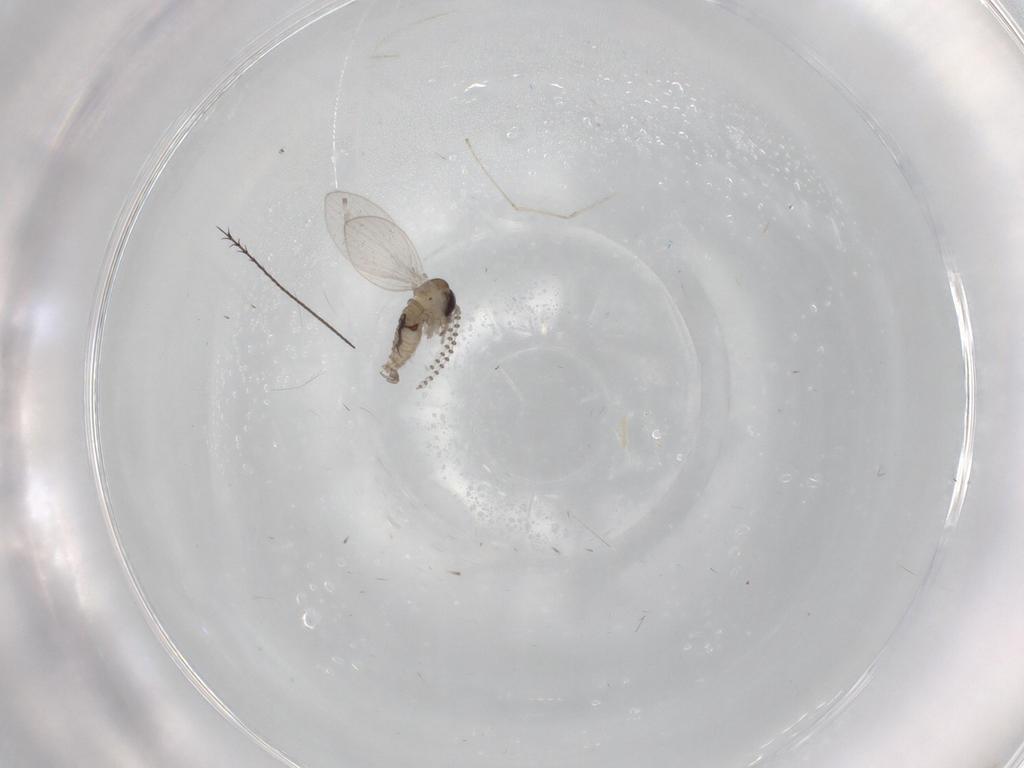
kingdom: Animalia
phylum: Arthropoda
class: Insecta
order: Diptera
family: Psychodidae
